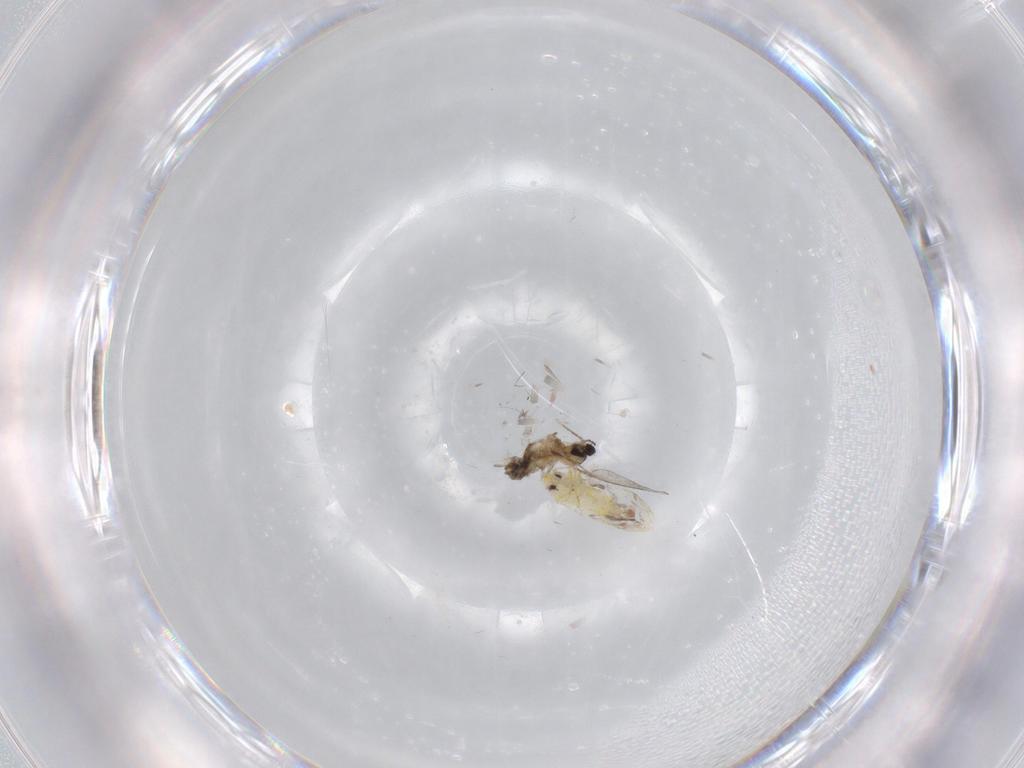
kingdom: Animalia
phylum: Arthropoda
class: Insecta
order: Diptera
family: Cecidomyiidae
